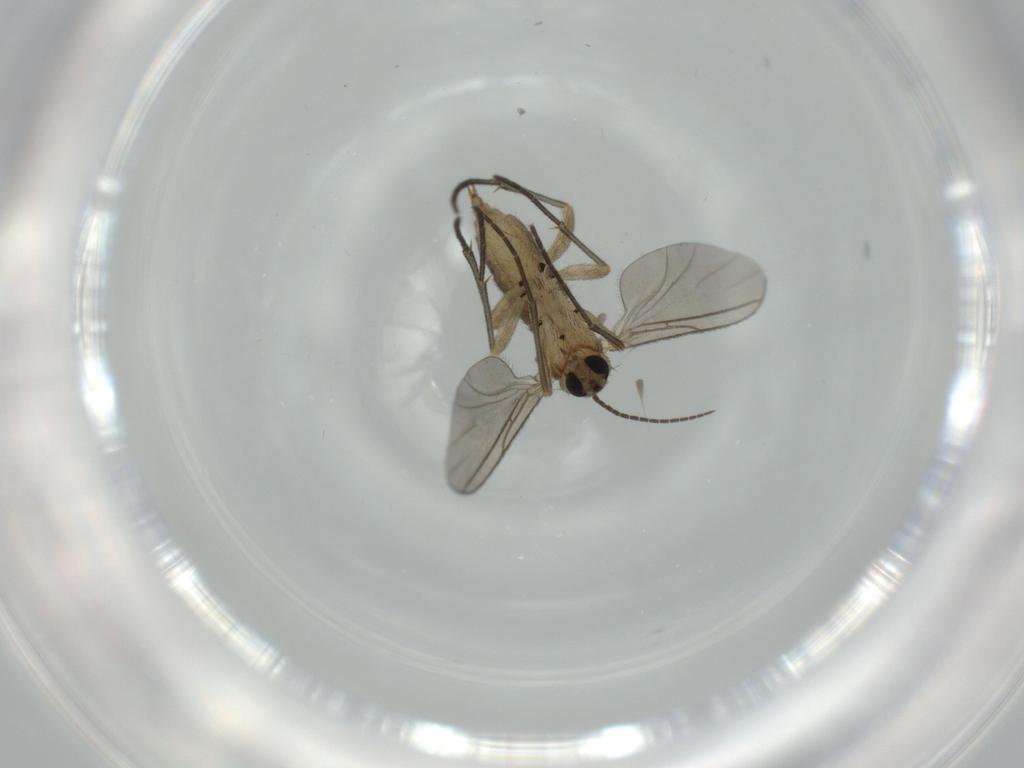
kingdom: Animalia
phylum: Arthropoda
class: Insecta
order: Diptera
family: Sciaridae
